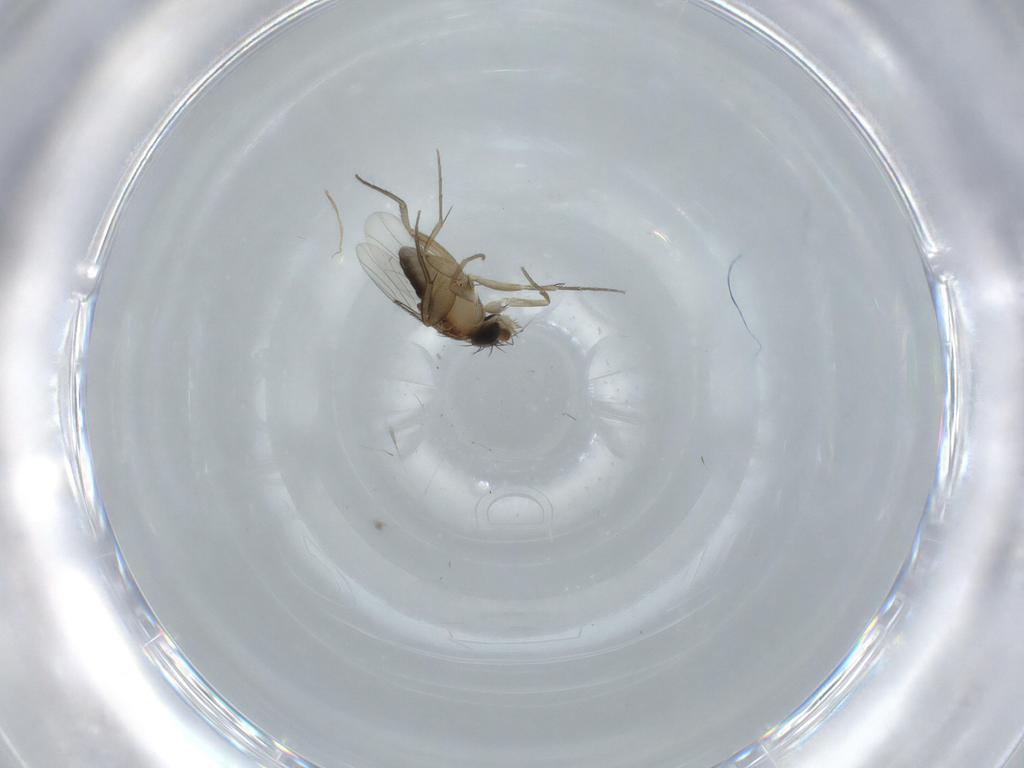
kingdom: Animalia
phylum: Arthropoda
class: Insecta
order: Diptera
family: Phoridae
